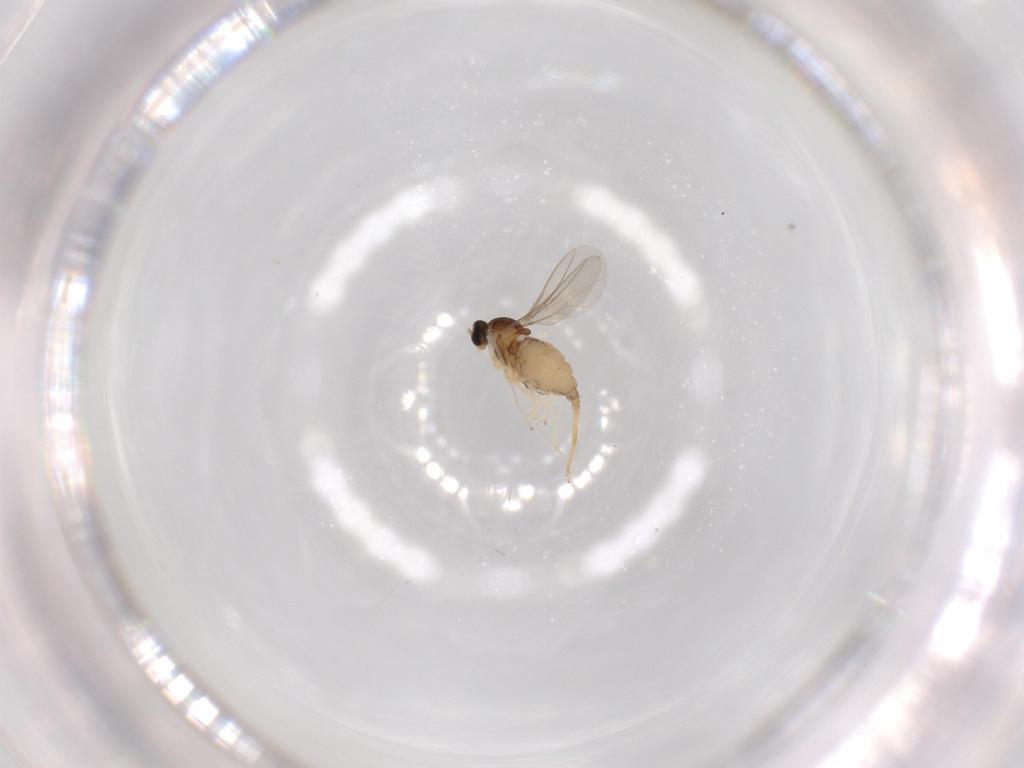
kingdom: Animalia
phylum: Arthropoda
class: Insecta
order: Diptera
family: Cecidomyiidae
